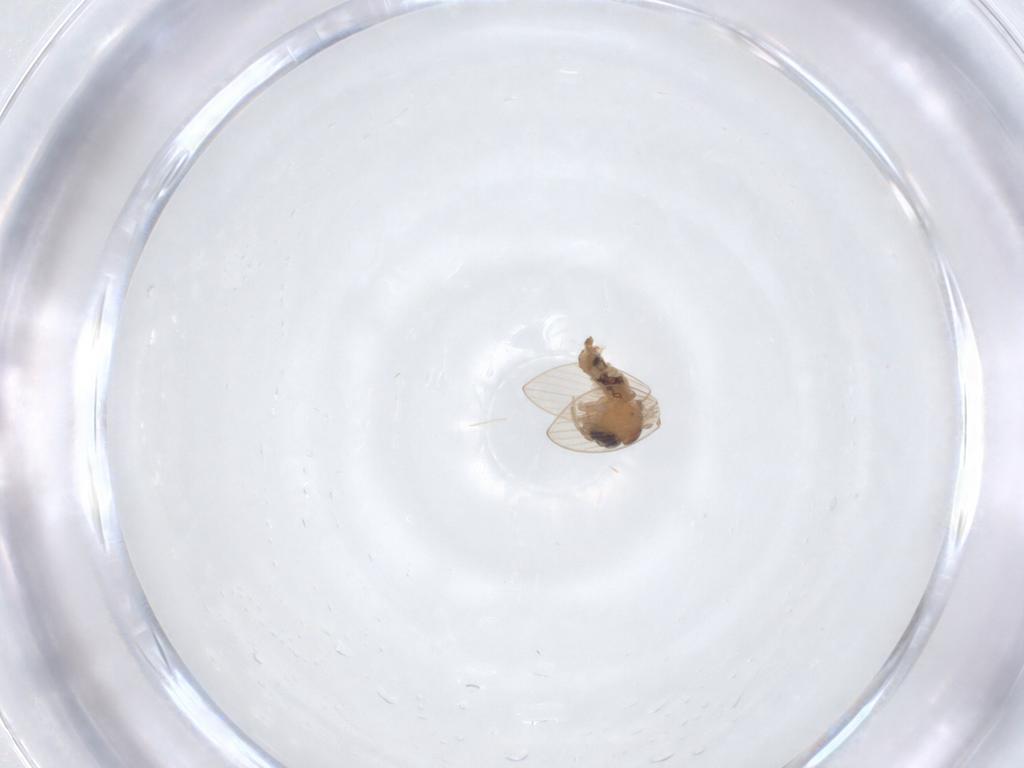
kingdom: Animalia
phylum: Arthropoda
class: Insecta
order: Diptera
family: Psychodidae
